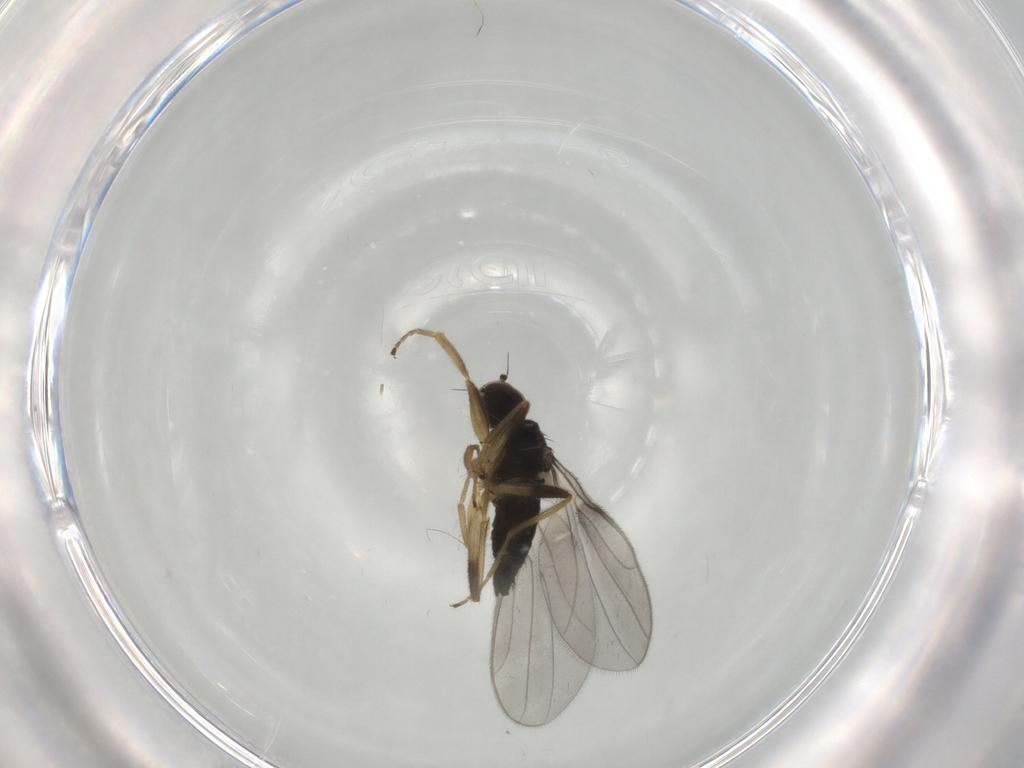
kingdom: Animalia
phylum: Arthropoda
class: Insecta
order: Diptera
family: Hybotidae
